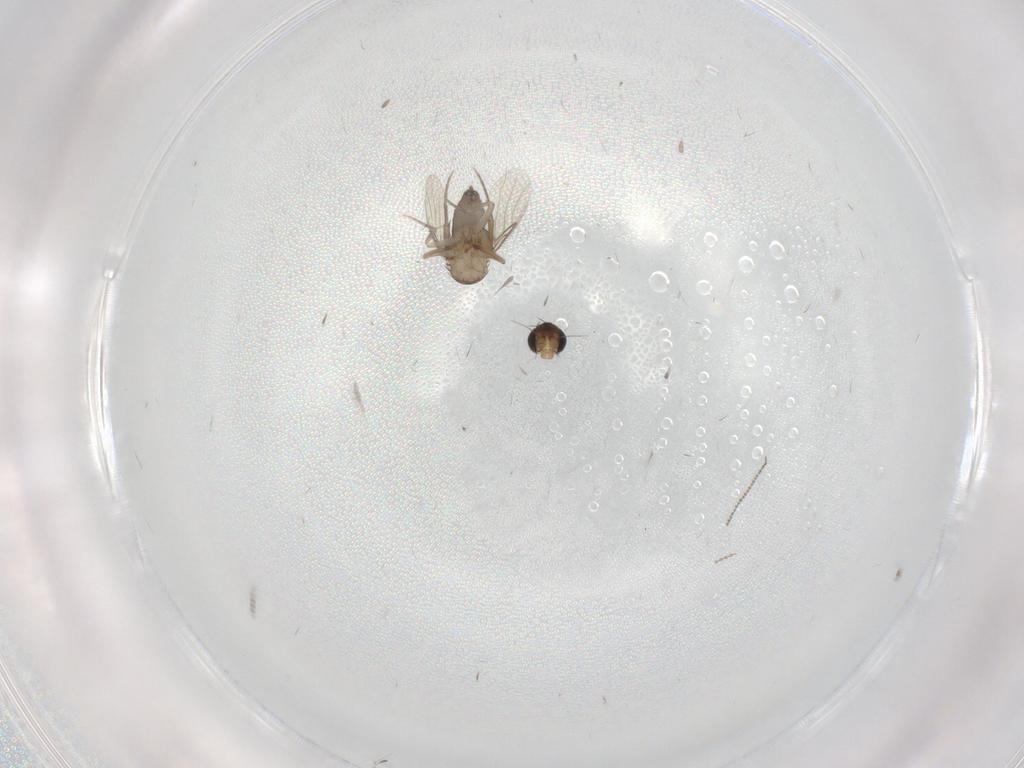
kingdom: Animalia
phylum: Arthropoda
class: Insecta
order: Diptera
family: Phoridae
